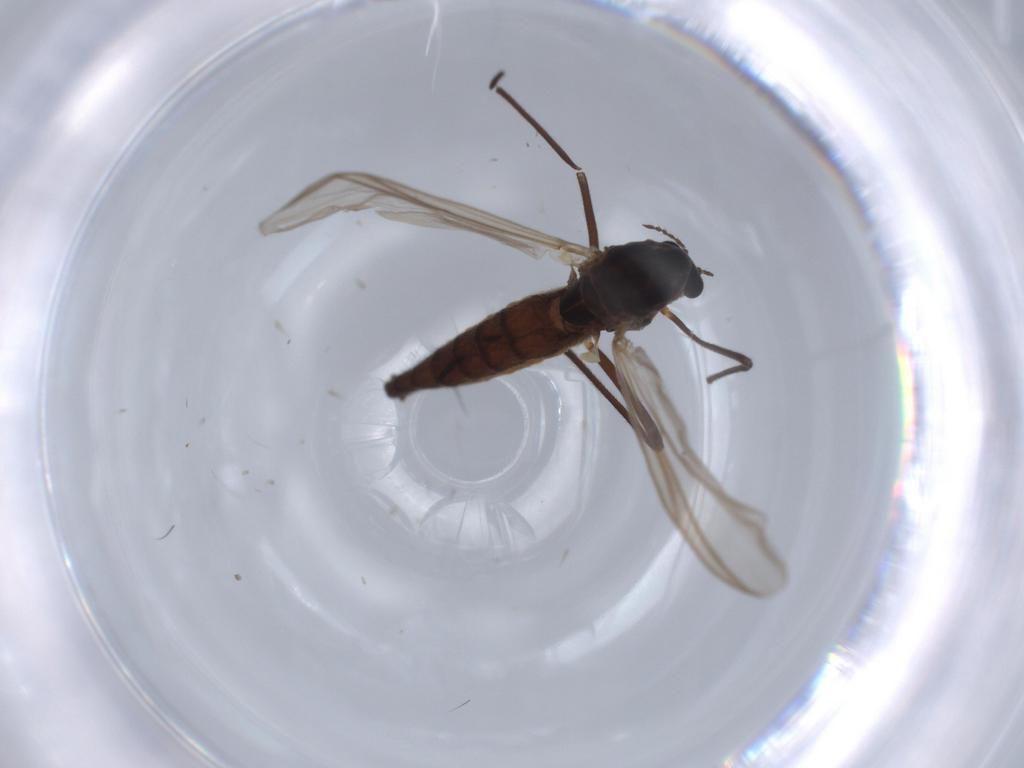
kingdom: Animalia
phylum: Arthropoda
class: Insecta
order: Diptera
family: Chironomidae
